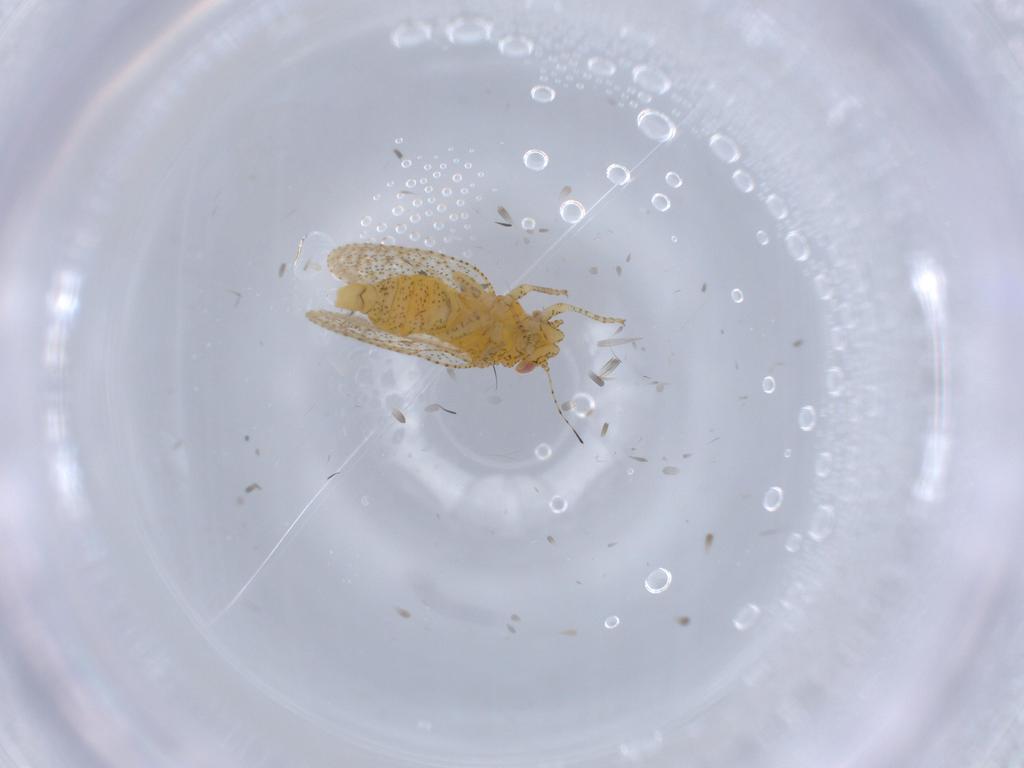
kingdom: Animalia
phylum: Arthropoda
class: Insecta
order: Hemiptera
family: Psyllidae
